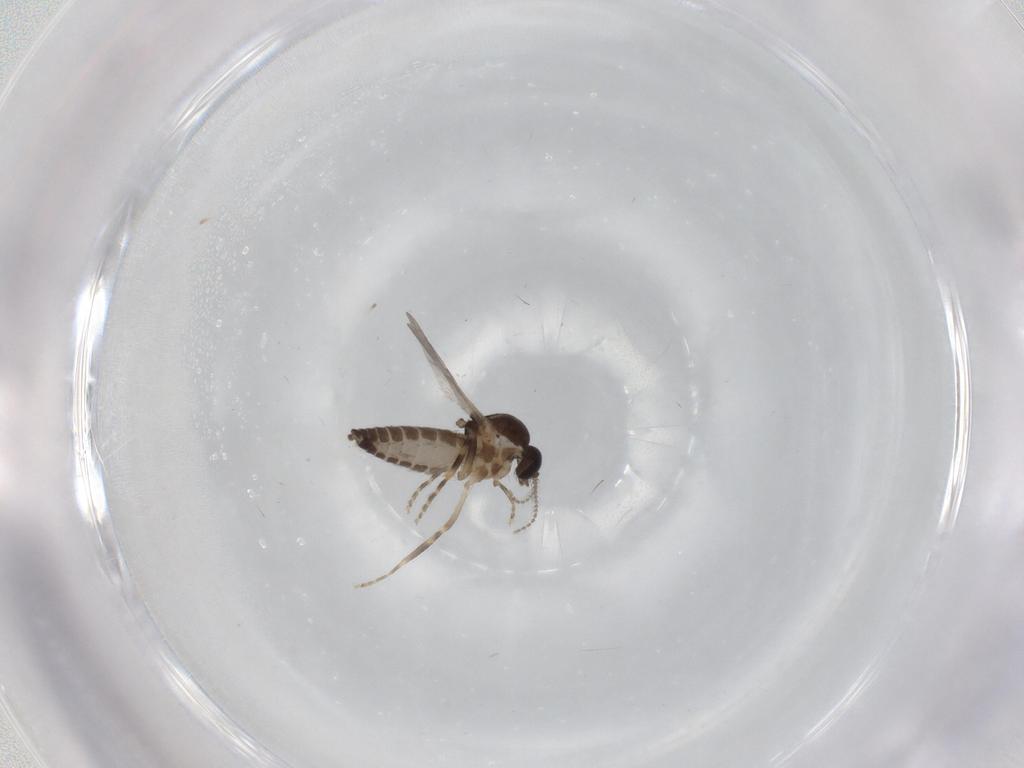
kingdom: Animalia
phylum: Arthropoda
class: Insecta
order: Diptera
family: Ceratopogonidae
